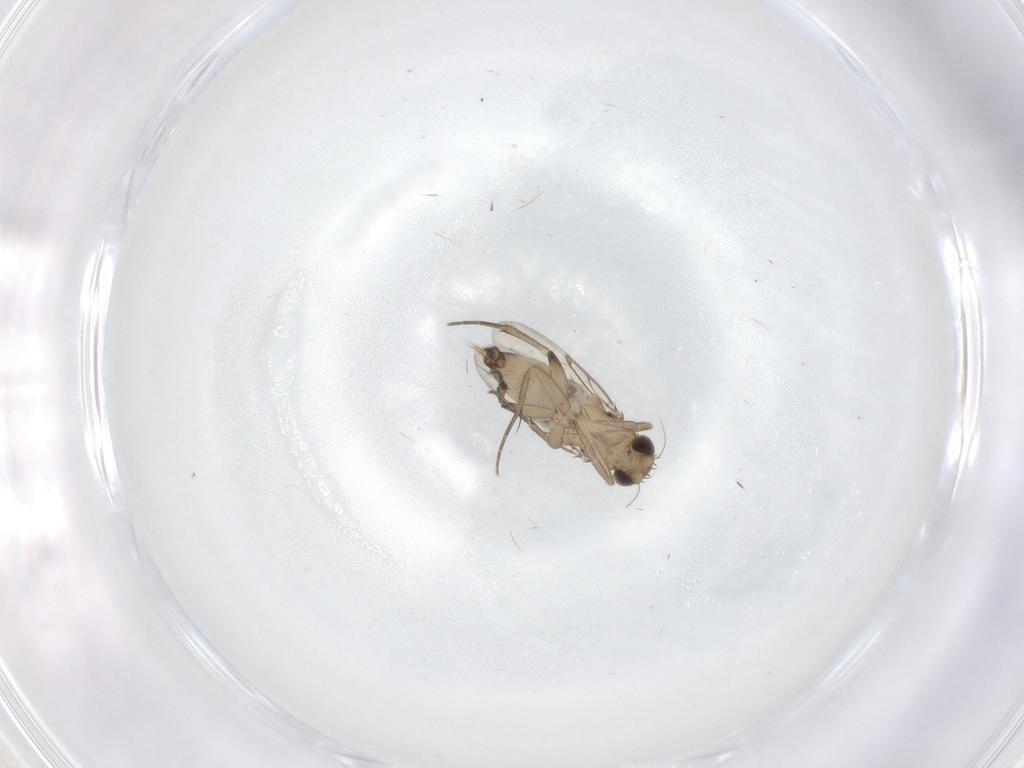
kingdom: Animalia
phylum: Arthropoda
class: Insecta
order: Diptera
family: Phoridae
